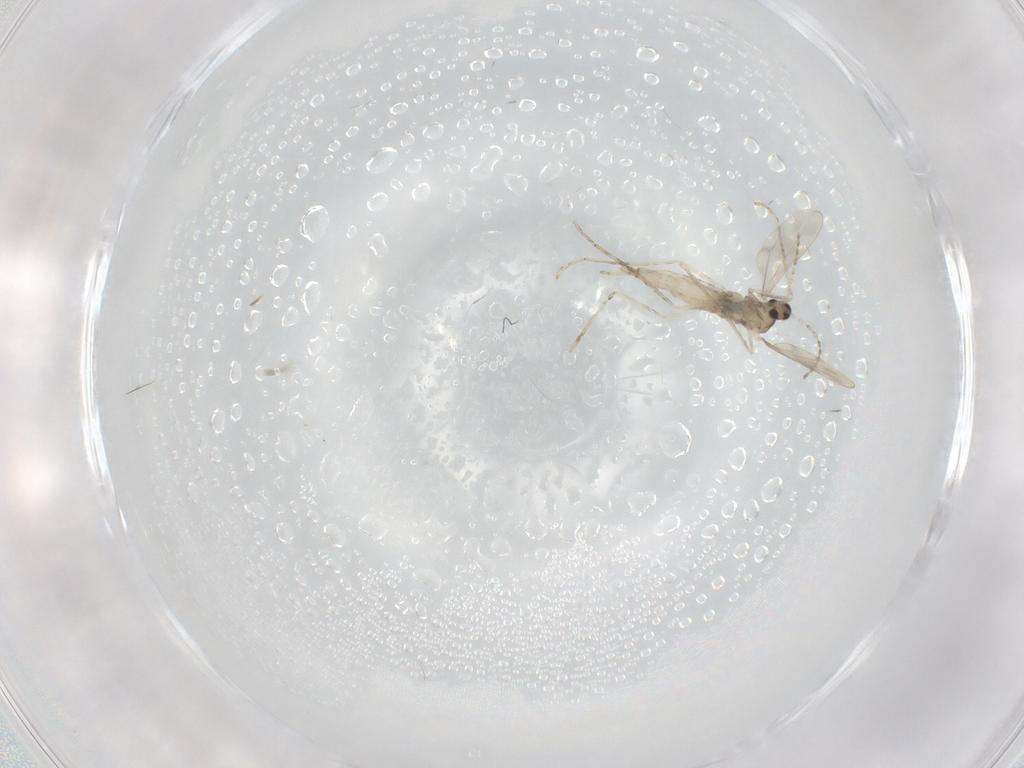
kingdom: Animalia
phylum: Arthropoda
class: Insecta
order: Diptera
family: Cecidomyiidae
